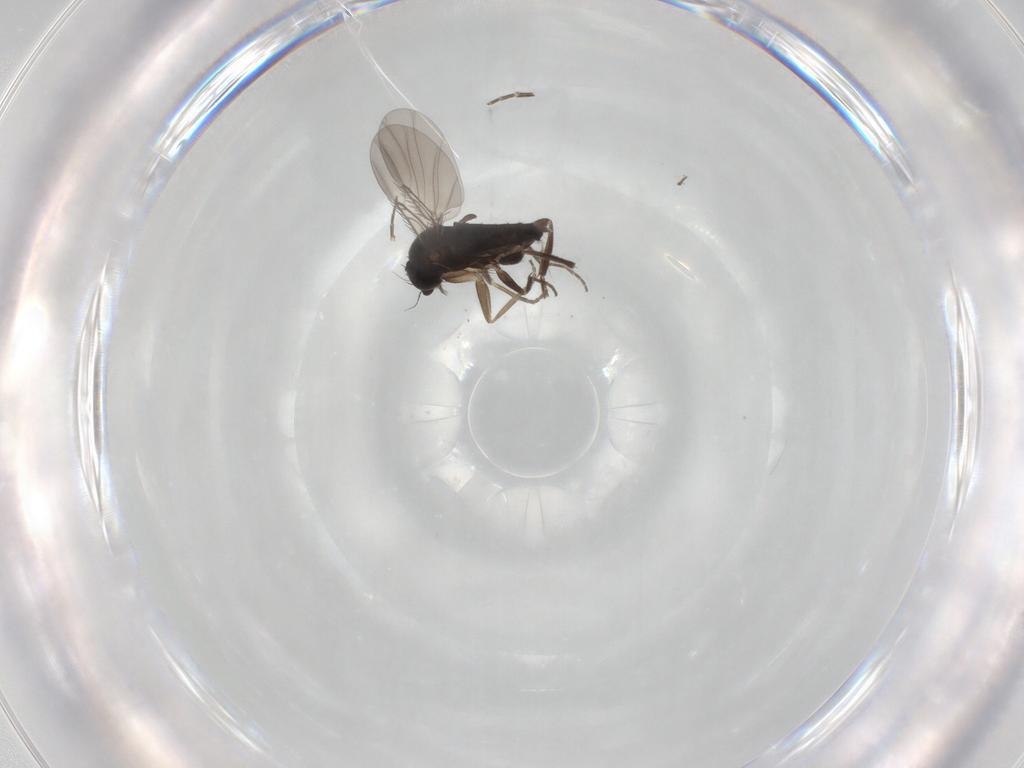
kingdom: Animalia
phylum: Arthropoda
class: Insecta
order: Diptera
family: Phoridae
